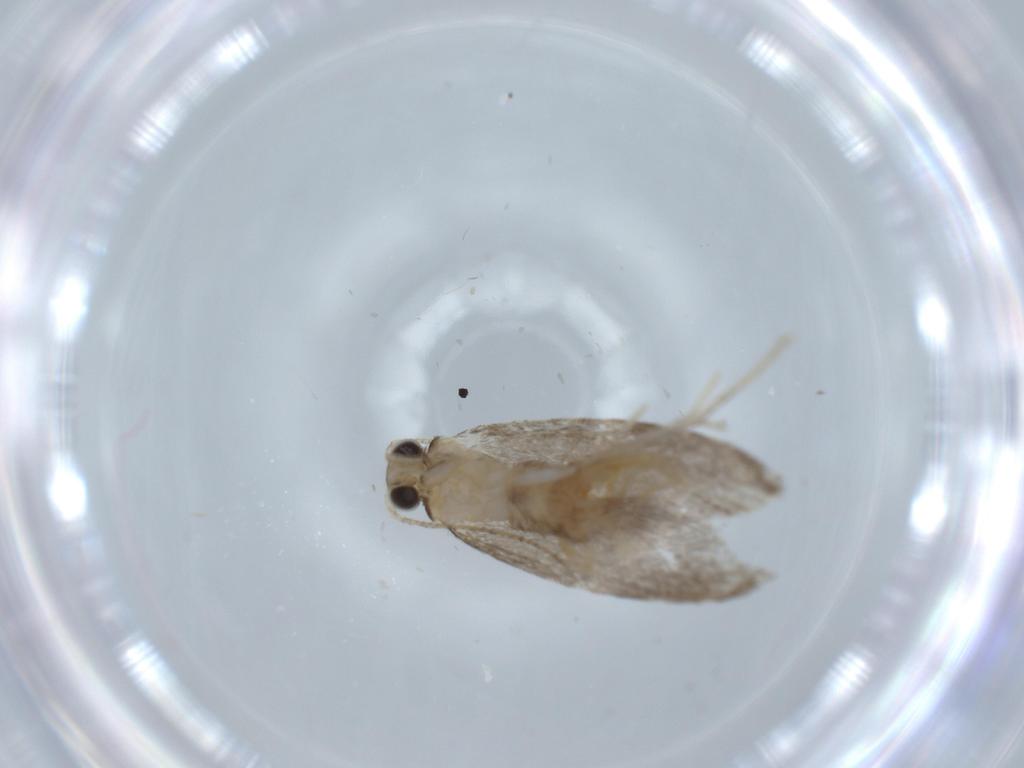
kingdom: Animalia
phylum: Arthropoda
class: Insecta
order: Lepidoptera
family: Tineidae
